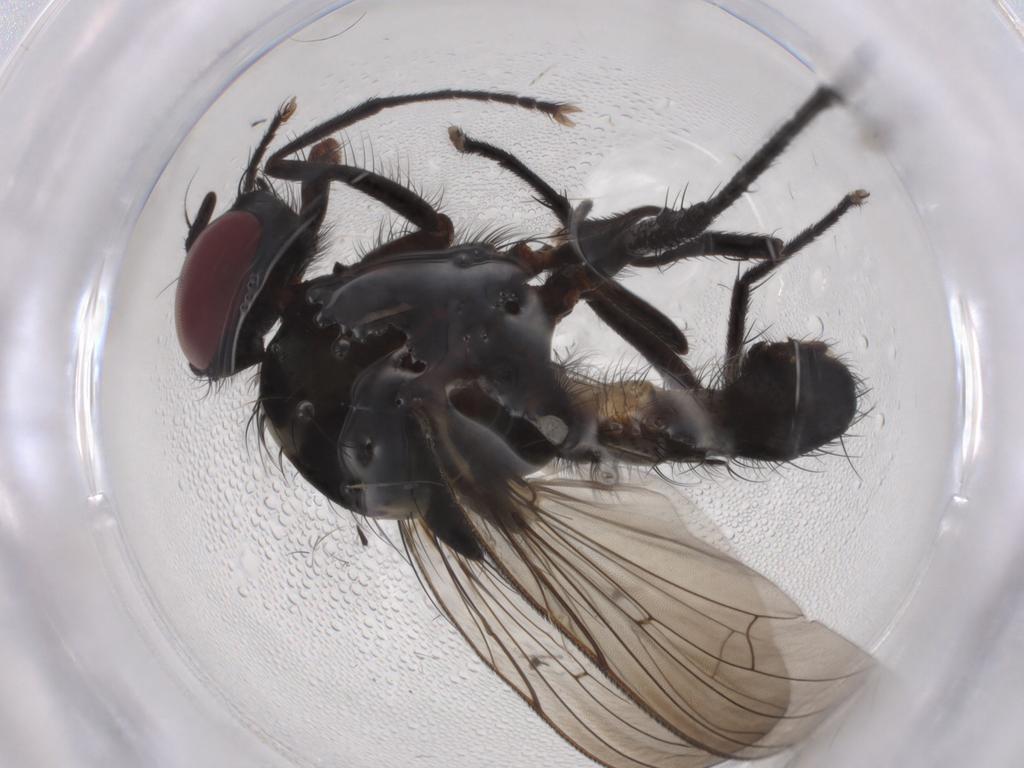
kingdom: Animalia
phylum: Arthropoda
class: Insecta
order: Diptera
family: Anthomyiidae
